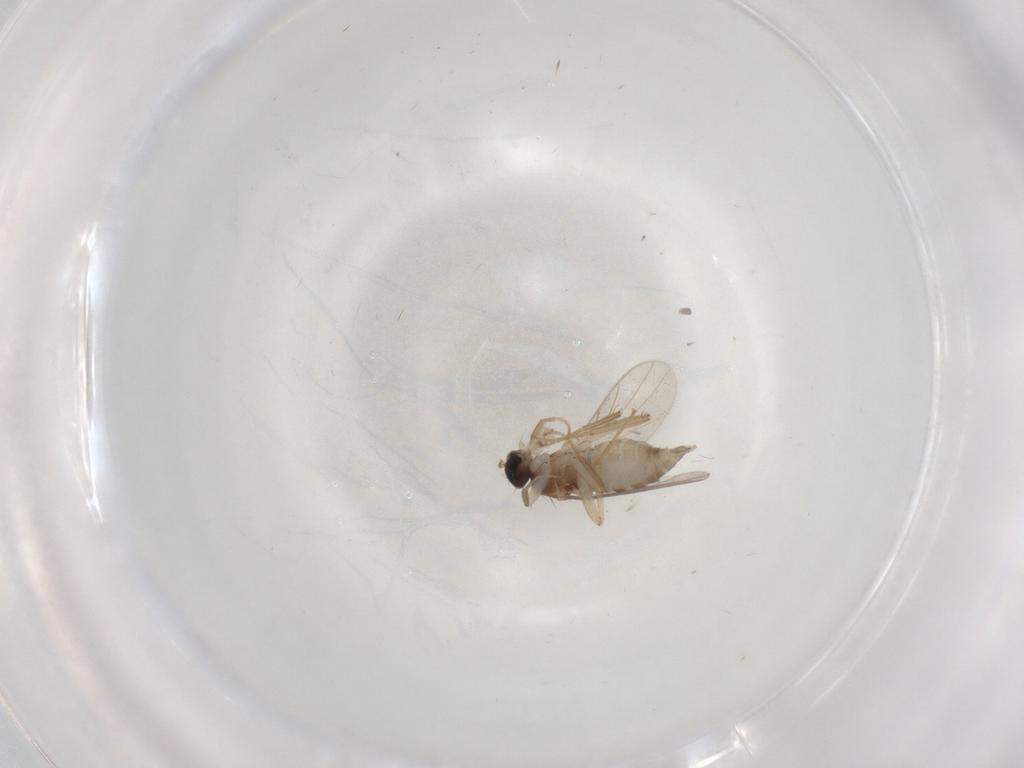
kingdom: Animalia
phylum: Arthropoda
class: Insecta
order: Diptera
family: Hybotidae
